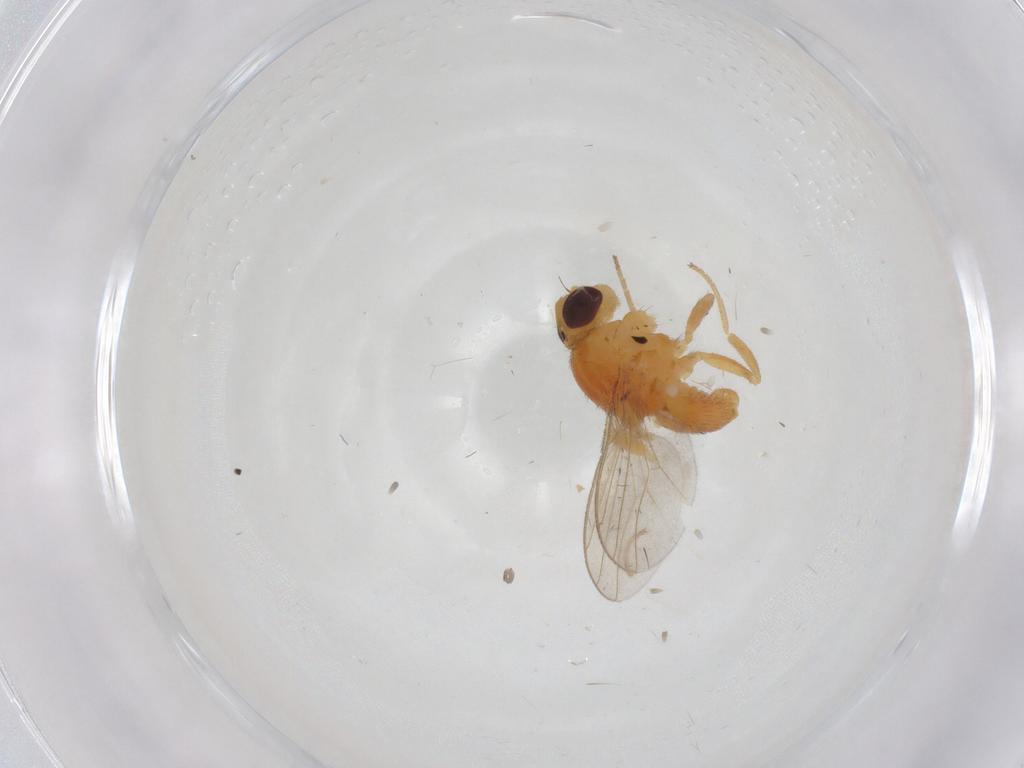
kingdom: Animalia
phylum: Arthropoda
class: Insecta
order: Diptera
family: Chloropidae
